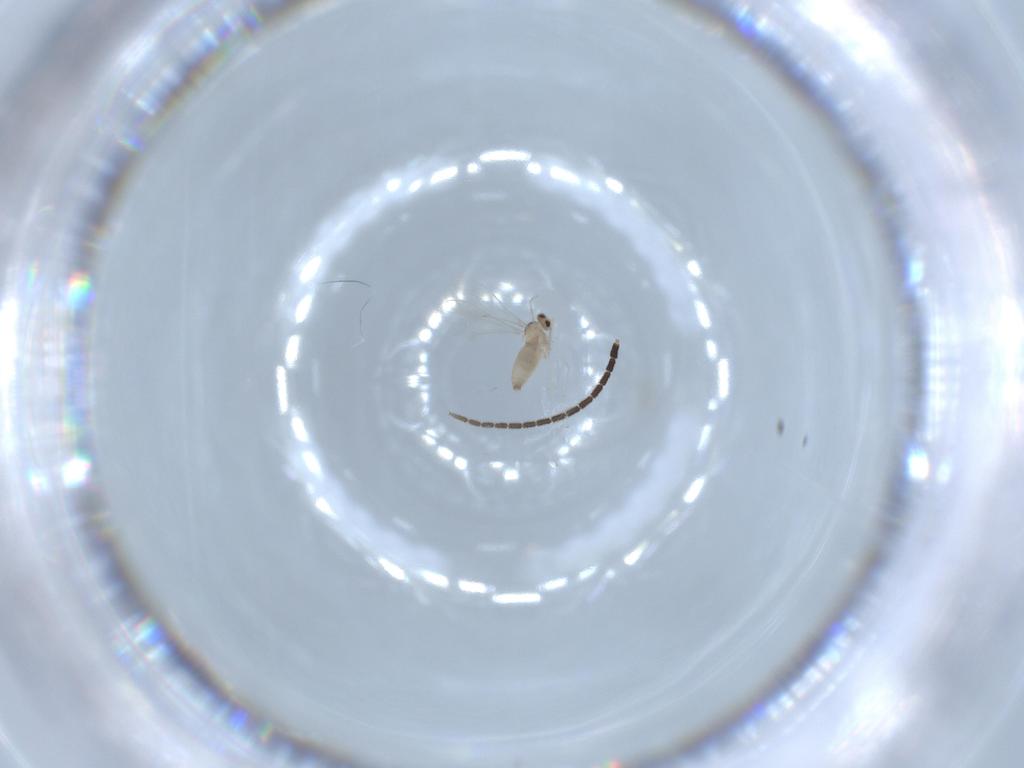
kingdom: Animalia
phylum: Arthropoda
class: Insecta
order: Diptera
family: Cecidomyiidae
